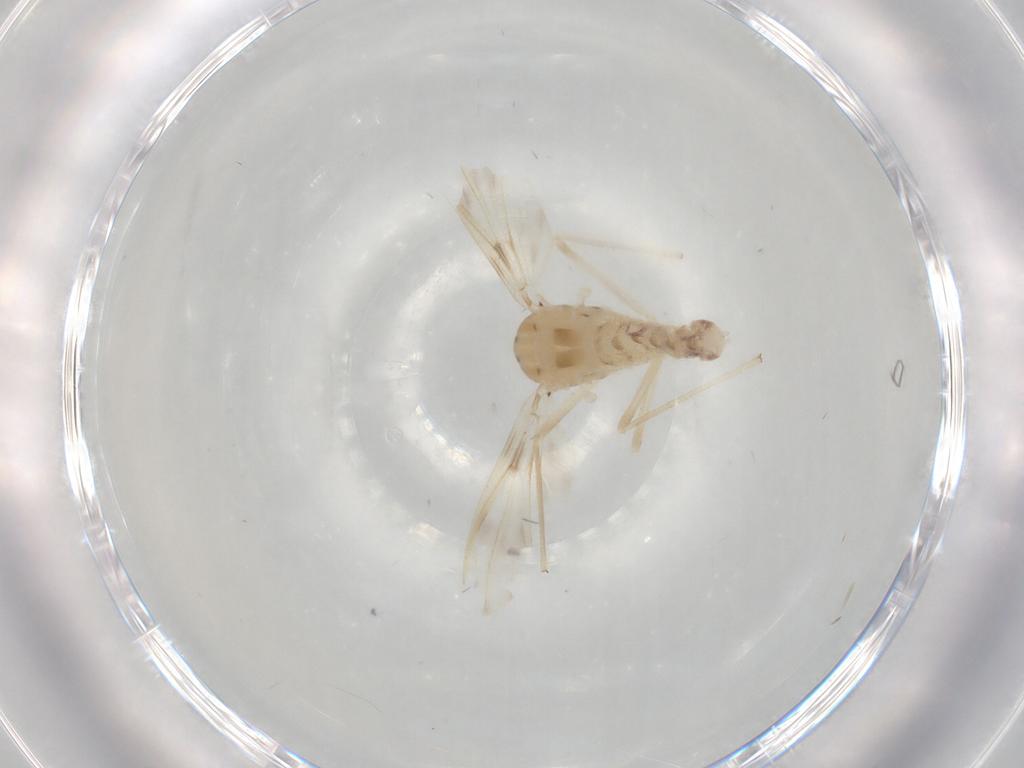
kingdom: Animalia
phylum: Arthropoda
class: Insecta
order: Diptera
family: Chironomidae
